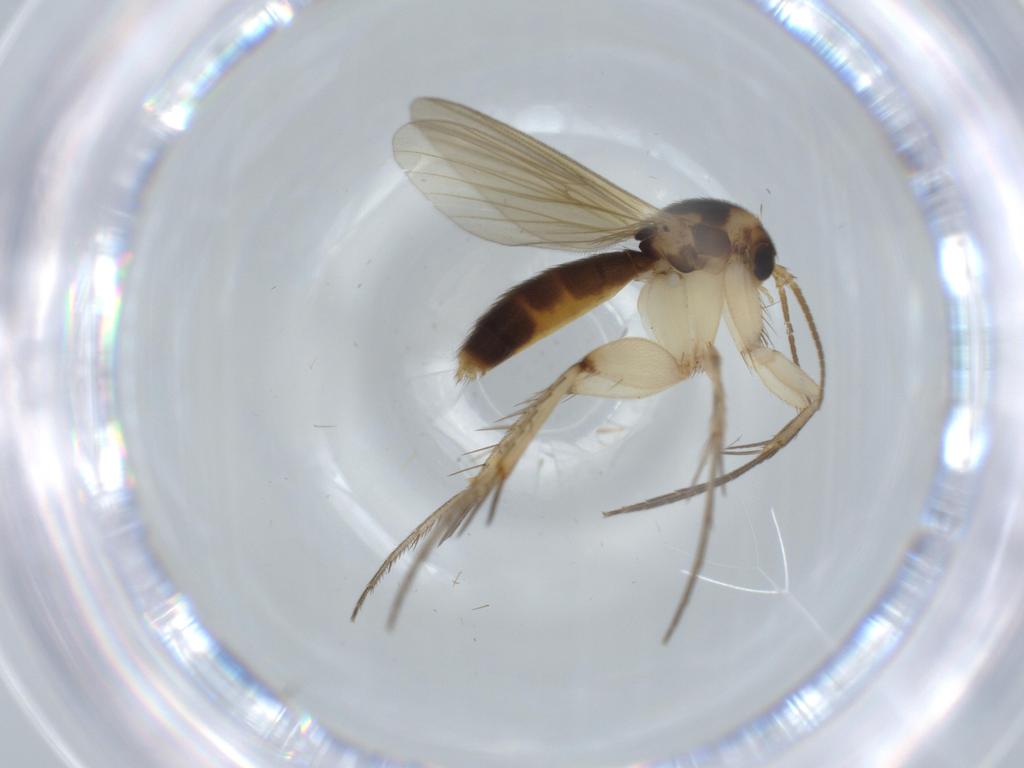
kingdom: Animalia
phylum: Arthropoda
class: Insecta
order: Diptera
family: Mycetophilidae
